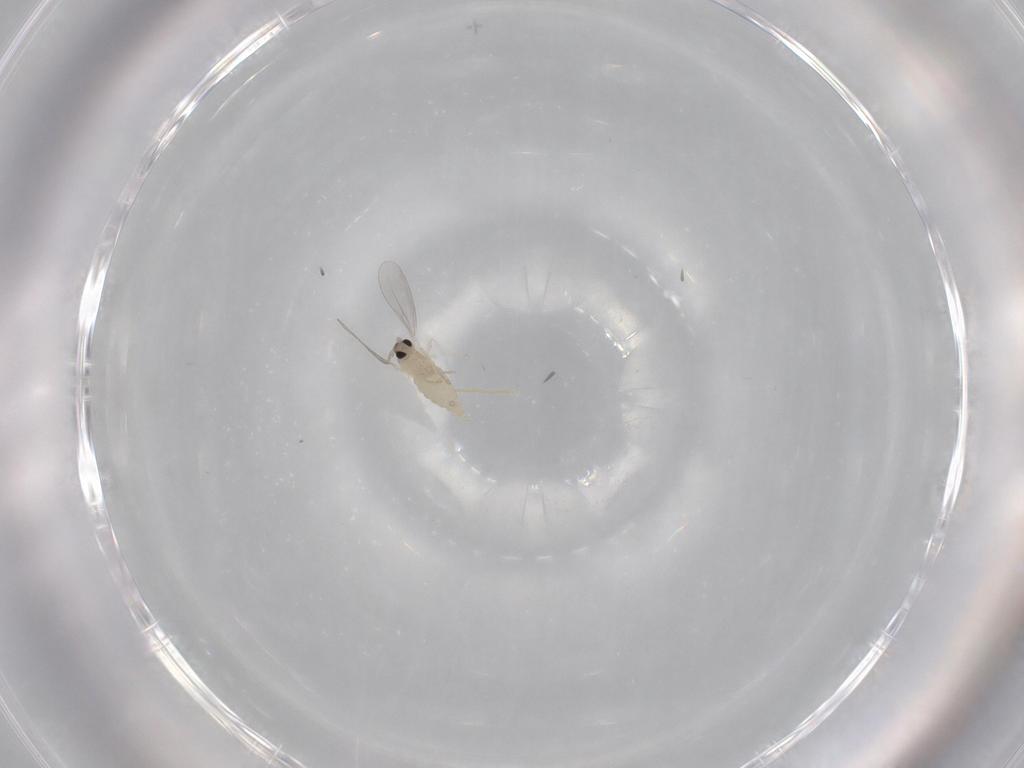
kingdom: Animalia
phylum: Arthropoda
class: Insecta
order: Diptera
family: Cecidomyiidae
